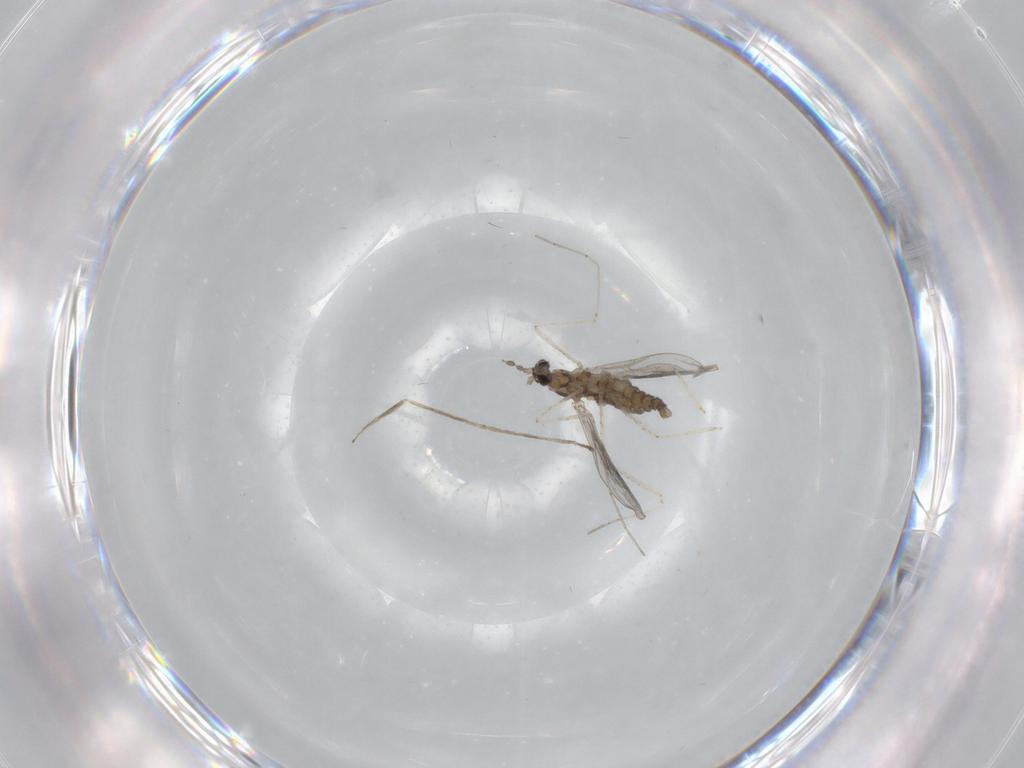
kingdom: Animalia
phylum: Arthropoda
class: Insecta
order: Diptera
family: Cecidomyiidae
